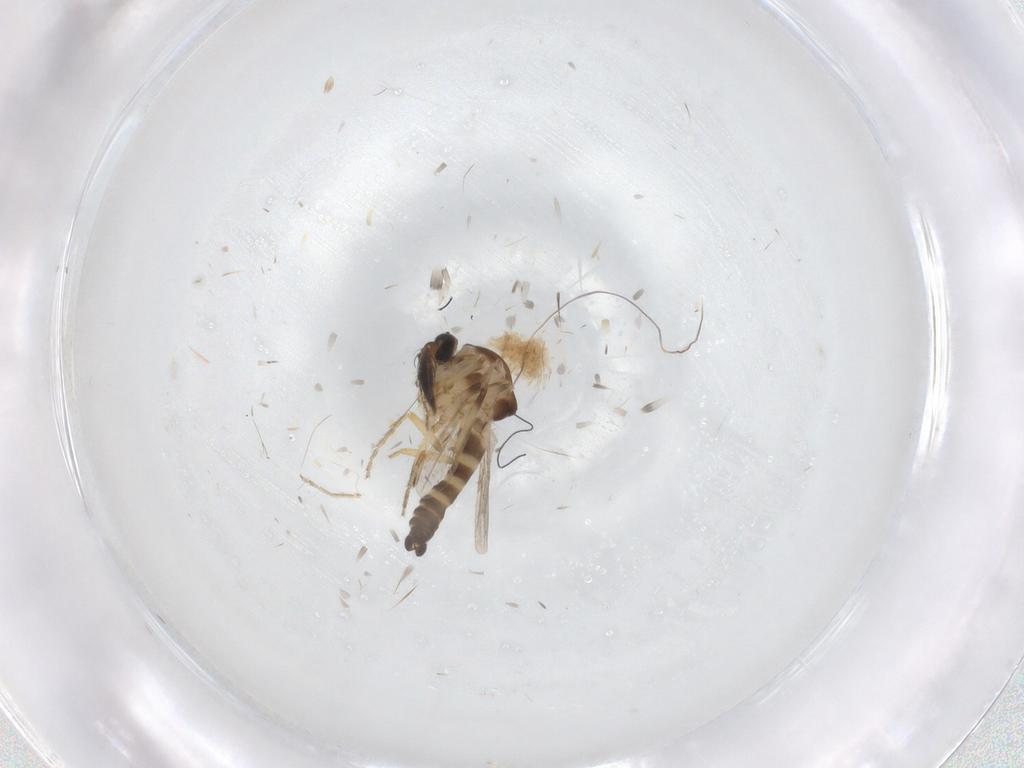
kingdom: Animalia
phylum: Arthropoda
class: Insecta
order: Diptera
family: Ceratopogonidae
